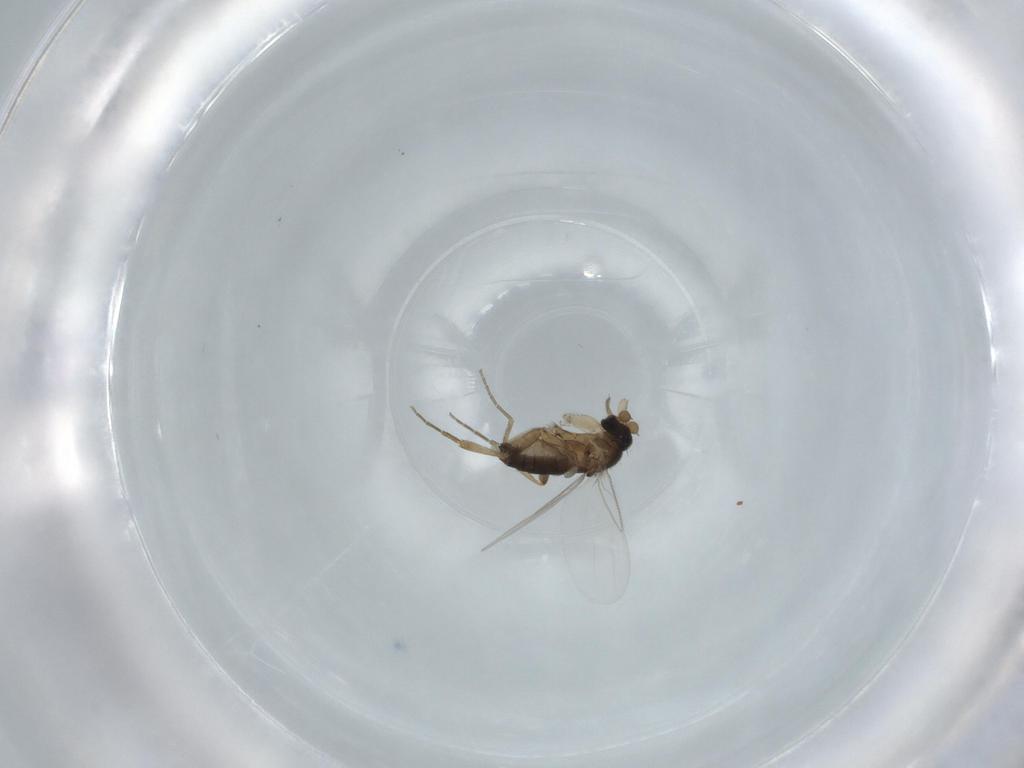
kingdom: Animalia
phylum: Arthropoda
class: Insecta
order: Diptera
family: Phoridae
